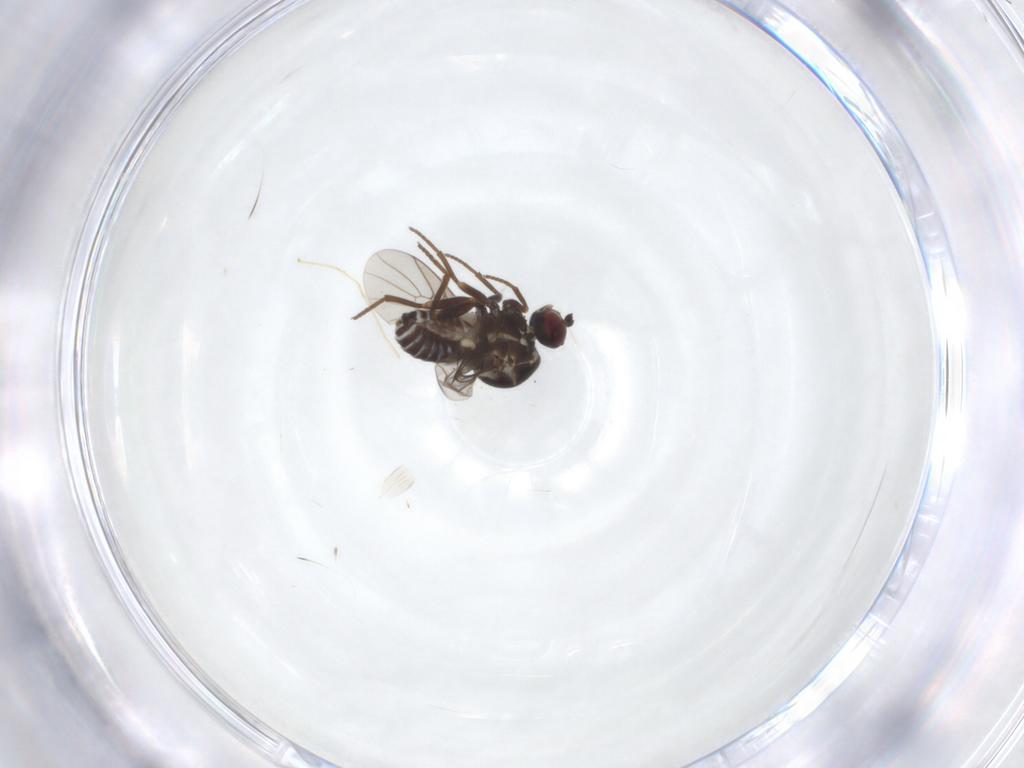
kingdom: Animalia
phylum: Arthropoda
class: Insecta
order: Diptera
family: Mythicomyiidae
